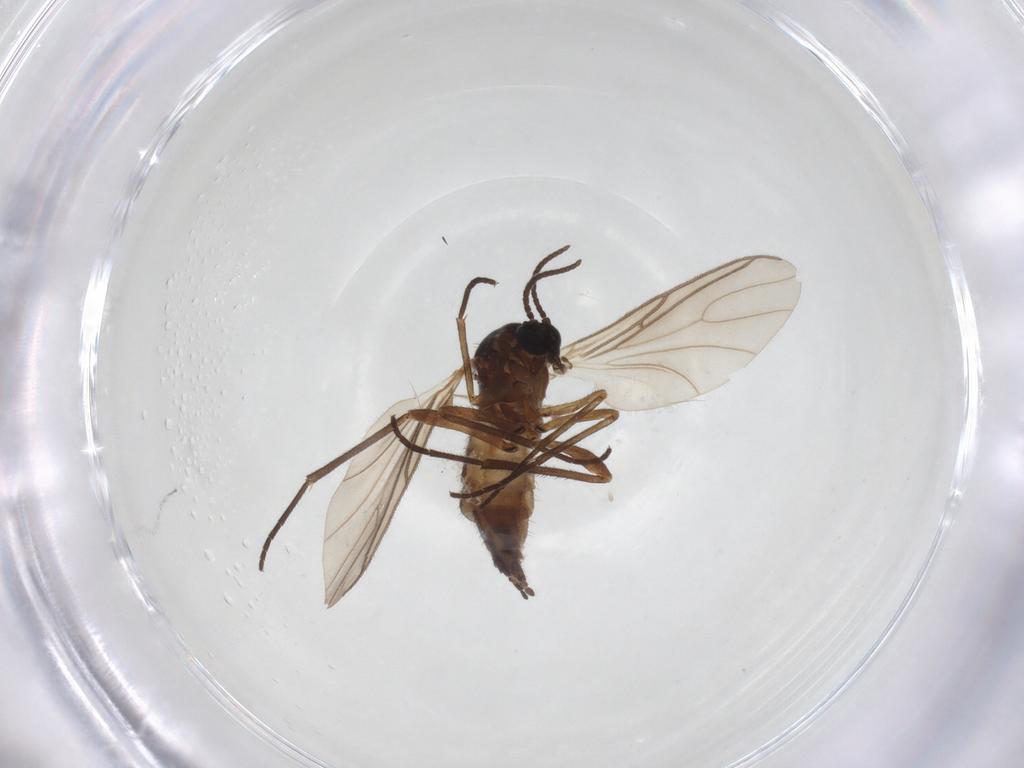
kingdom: Animalia
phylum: Arthropoda
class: Insecta
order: Diptera
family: Sciaridae
